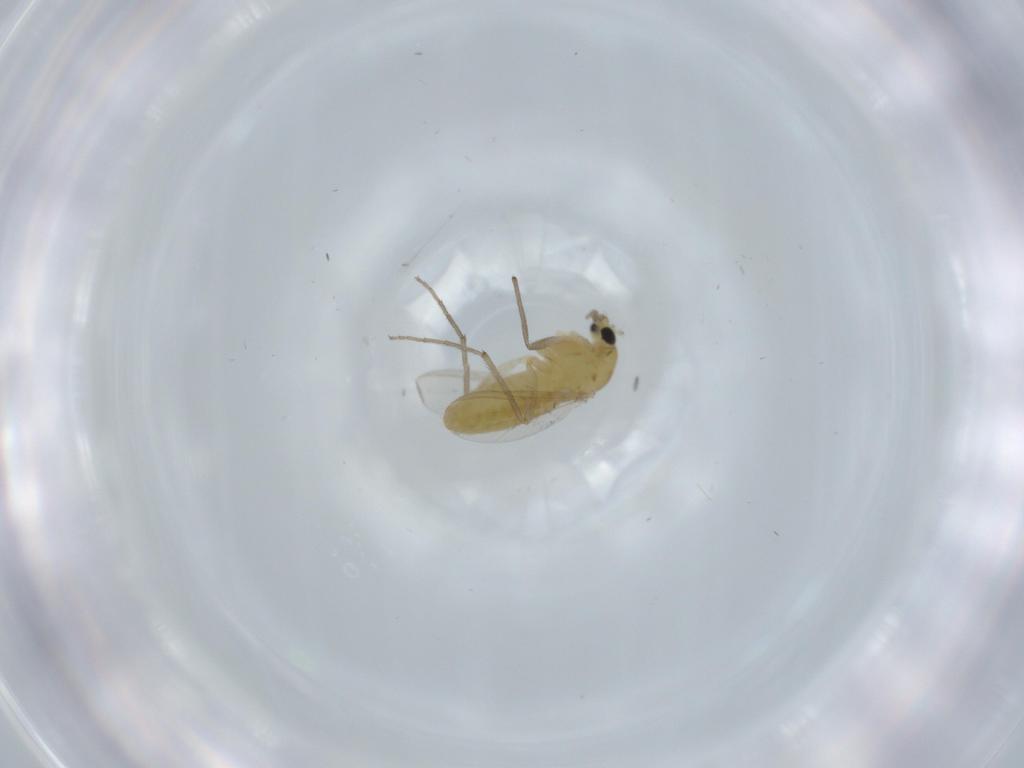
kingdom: Animalia
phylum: Arthropoda
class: Insecta
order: Diptera
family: Chironomidae
